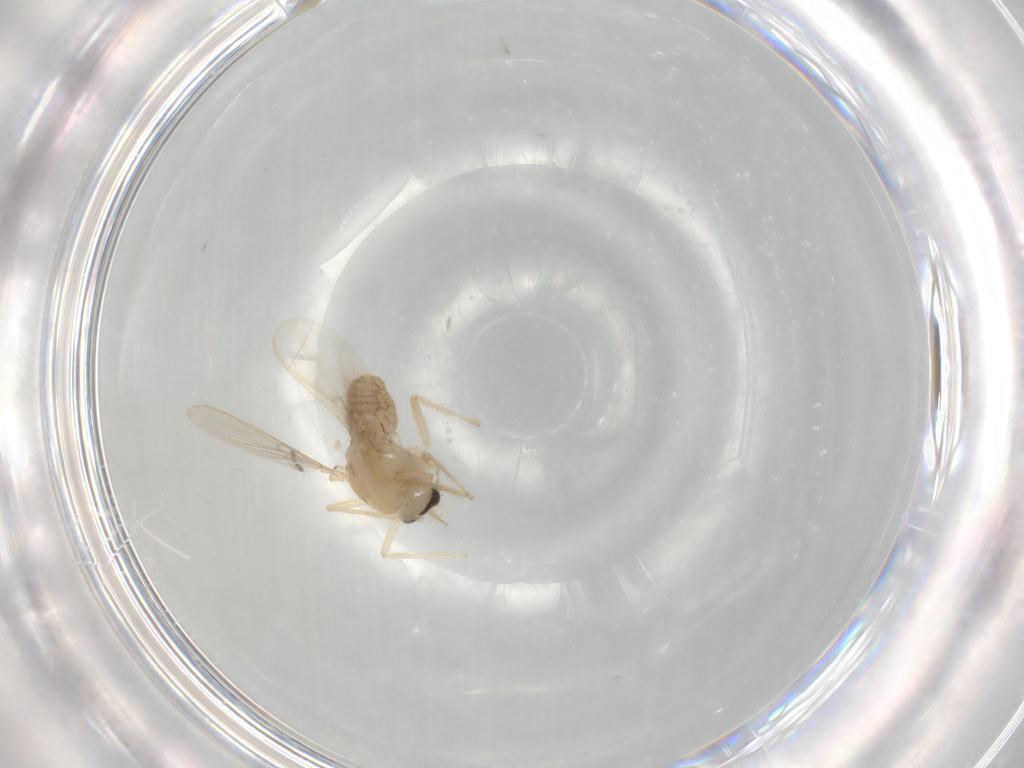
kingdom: Animalia
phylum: Arthropoda
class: Insecta
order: Diptera
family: Chironomidae
